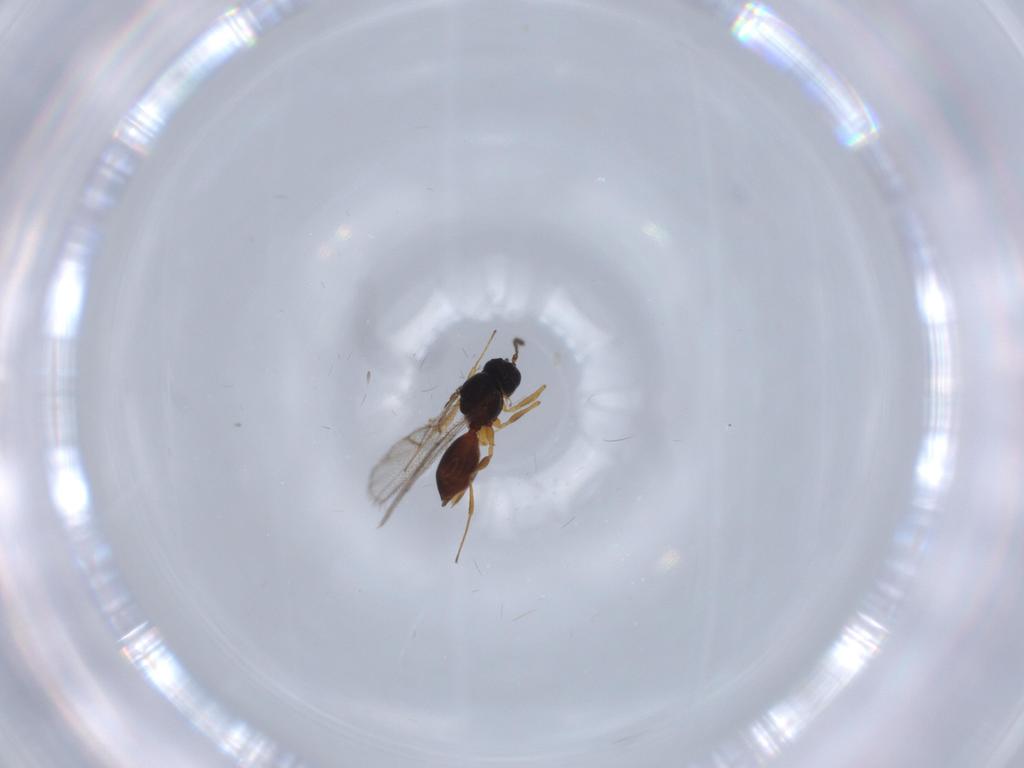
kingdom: Animalia
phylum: Arthropoda
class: Insecta
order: Hymenoptera
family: Figitidae
